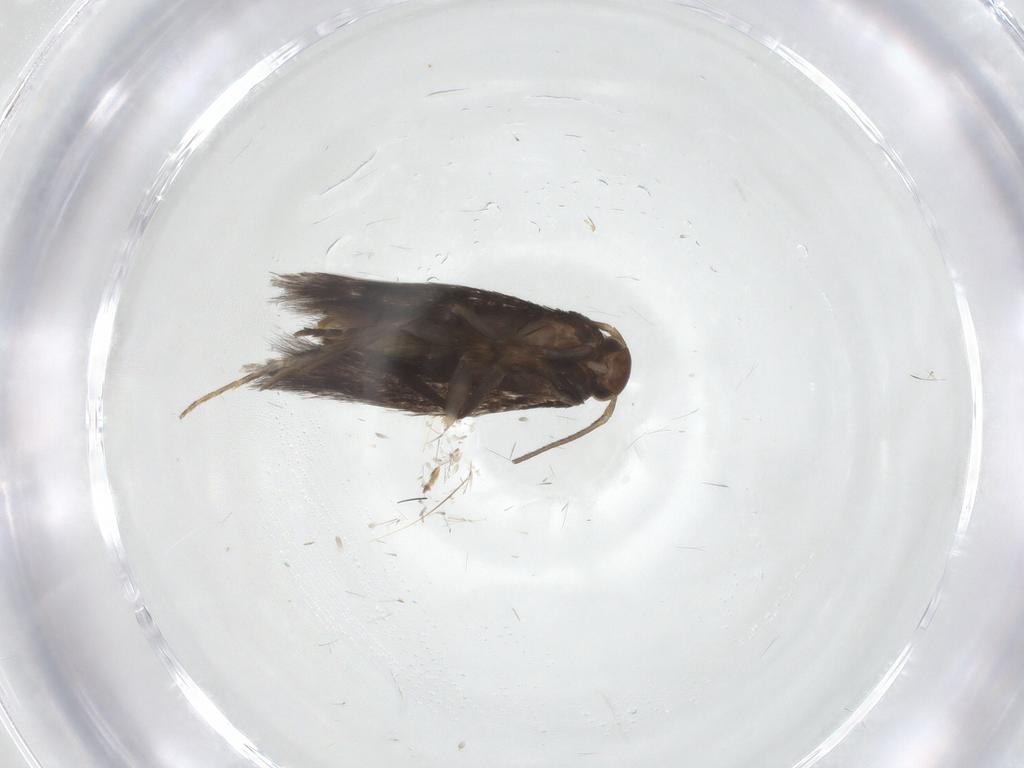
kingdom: Animalia
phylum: Arthropoda
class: Insecta
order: Lepidoptera
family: Elachistidae
